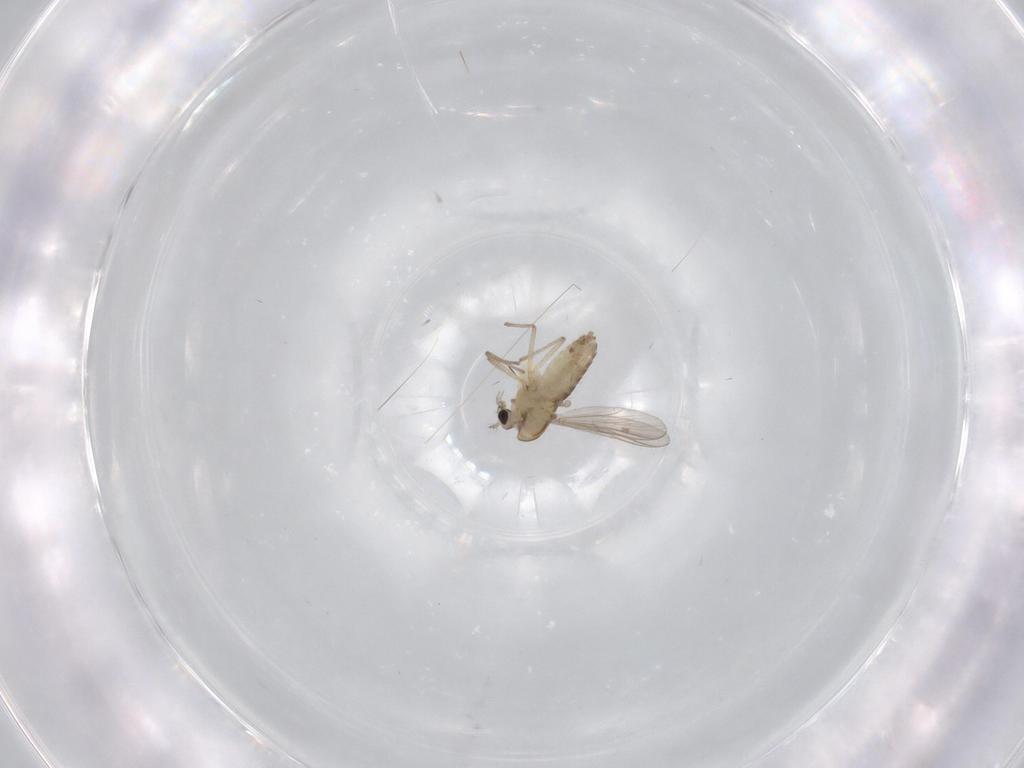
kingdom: Animalia
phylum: Arthropoda
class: Insecta
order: Diptera
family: Chironomidae
